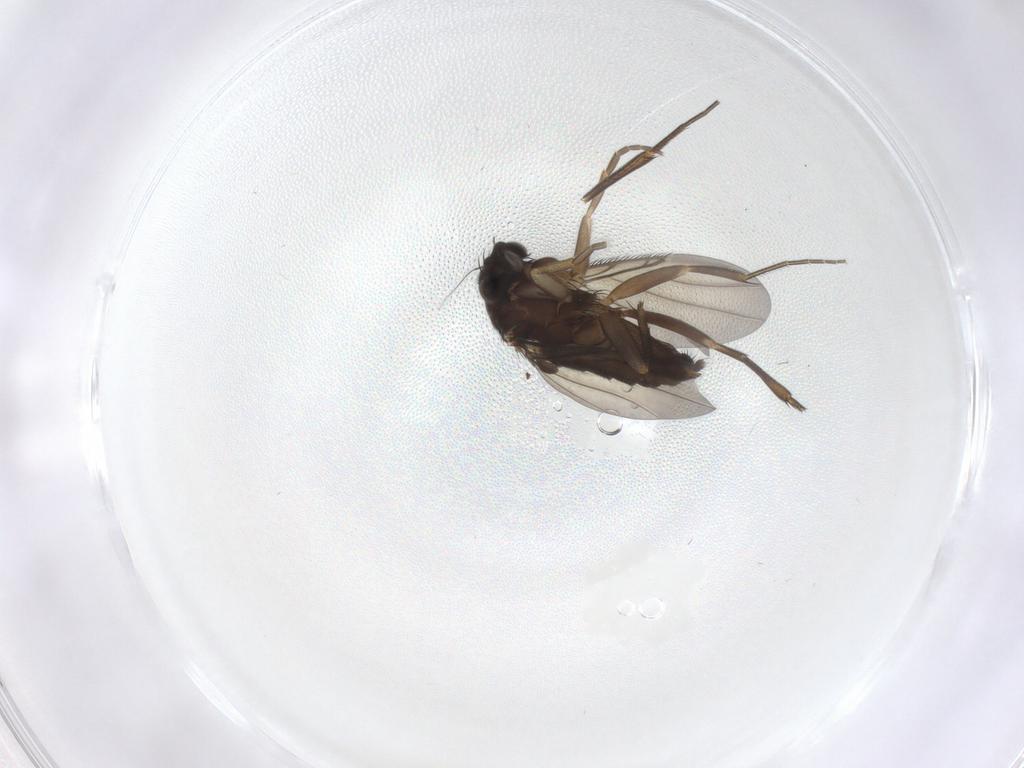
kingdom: Animalia
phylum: Arthropoda
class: Insecta
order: Diptera
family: Phoridae
